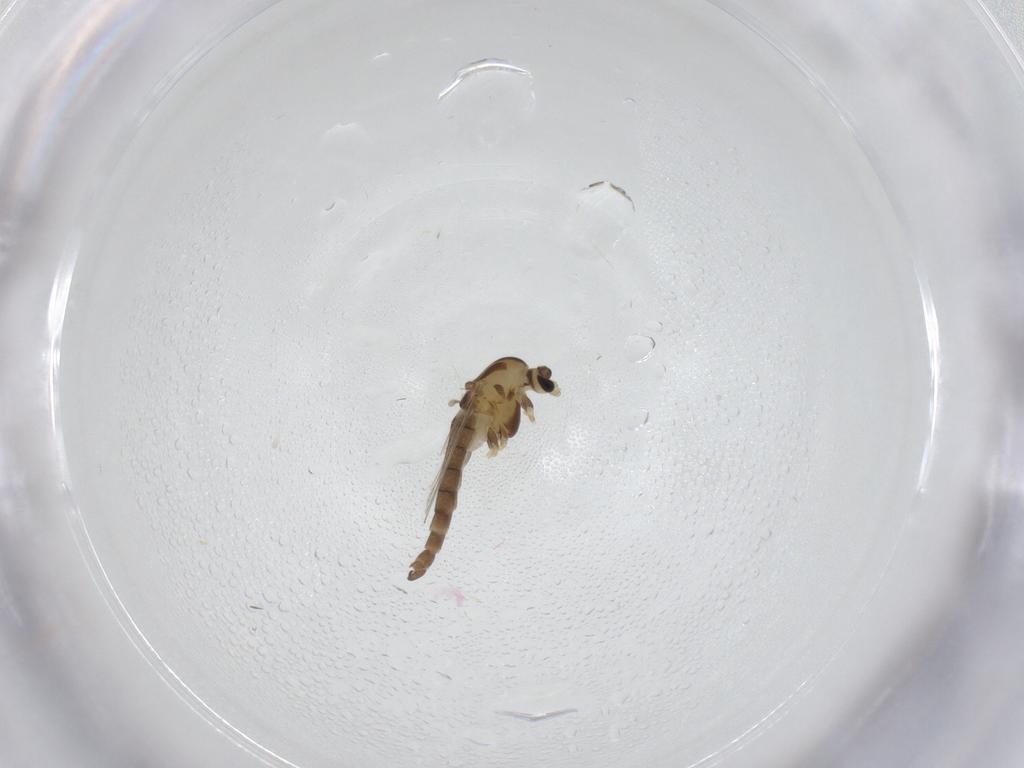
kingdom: Animalia
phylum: Arthropoda
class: Insecta
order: Diptera
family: Chironomidae
